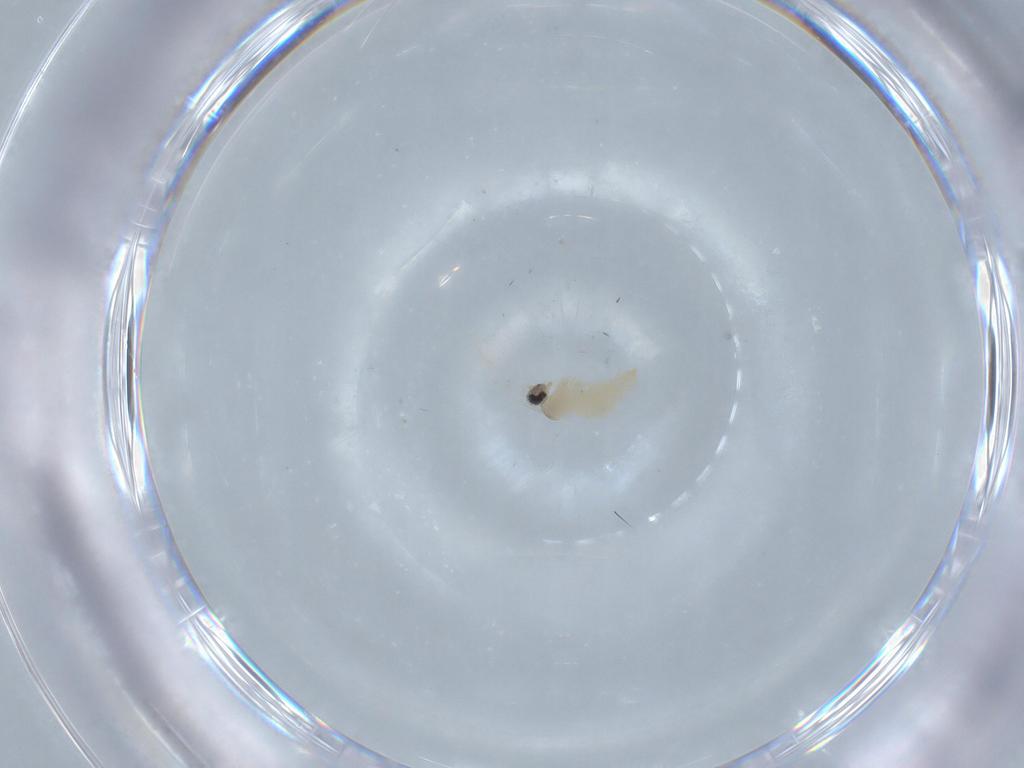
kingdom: Animalia
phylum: Arthropoda
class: Insecta
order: Diptera
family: Cecidomyiidae
